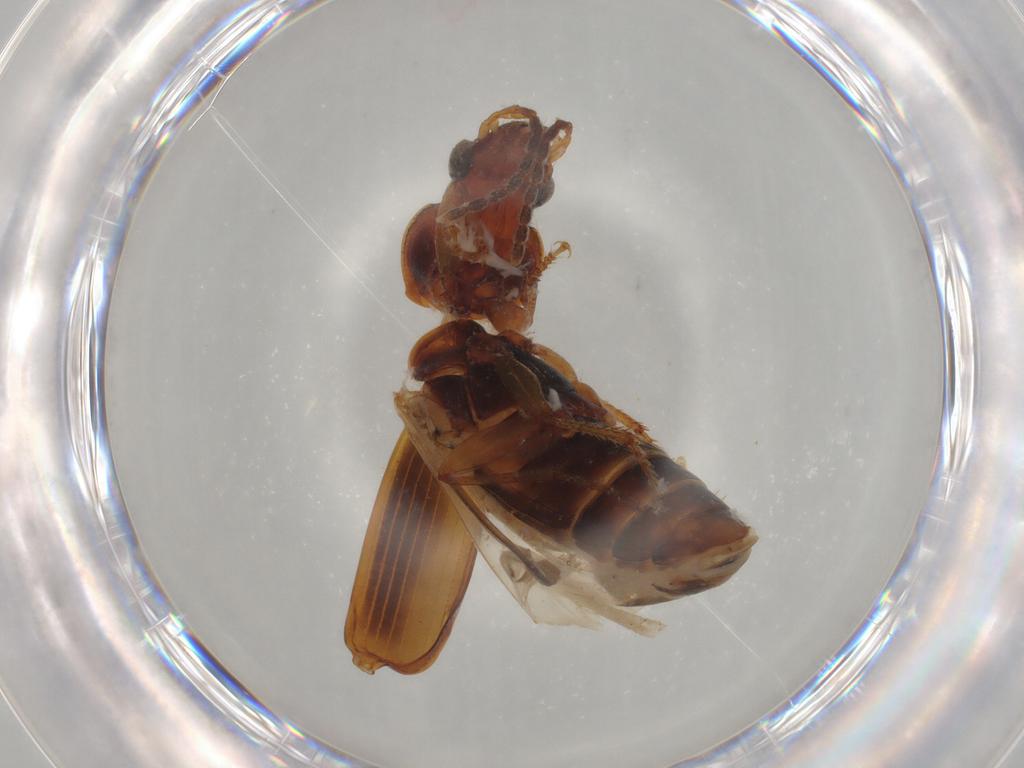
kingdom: Animalia
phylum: Arthropoda
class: Insecta
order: Coleoptera
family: Carabidae
